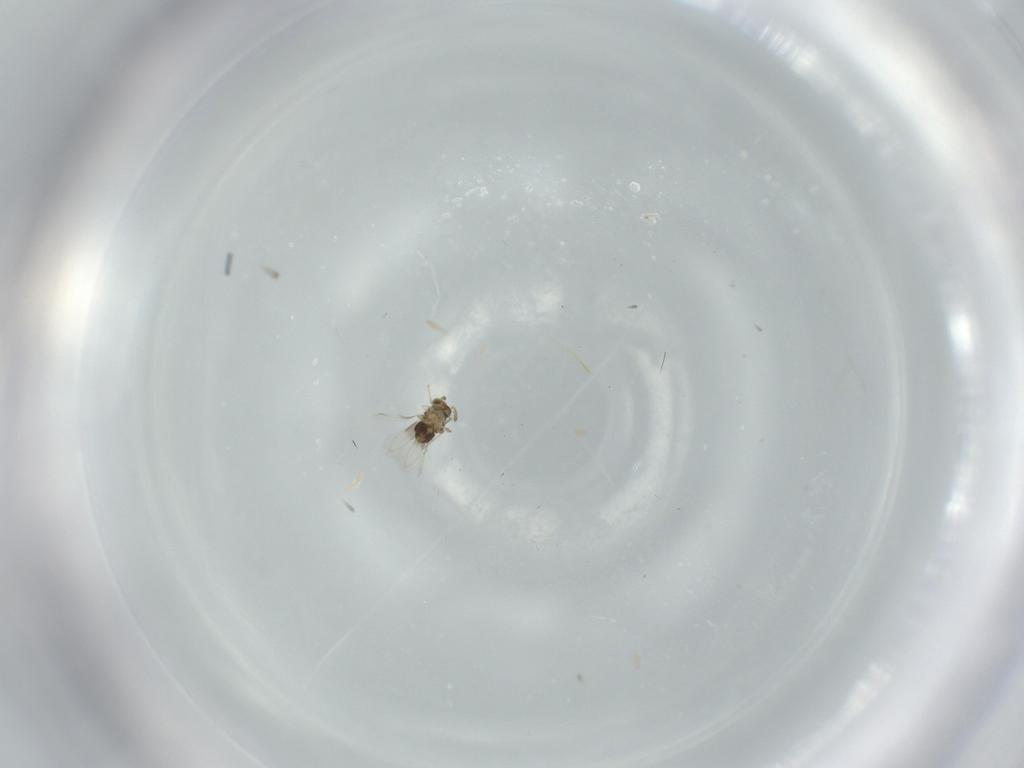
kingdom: Animalia
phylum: Arthropoda
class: Insecta
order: Hymenoptera
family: Aphelinidae
